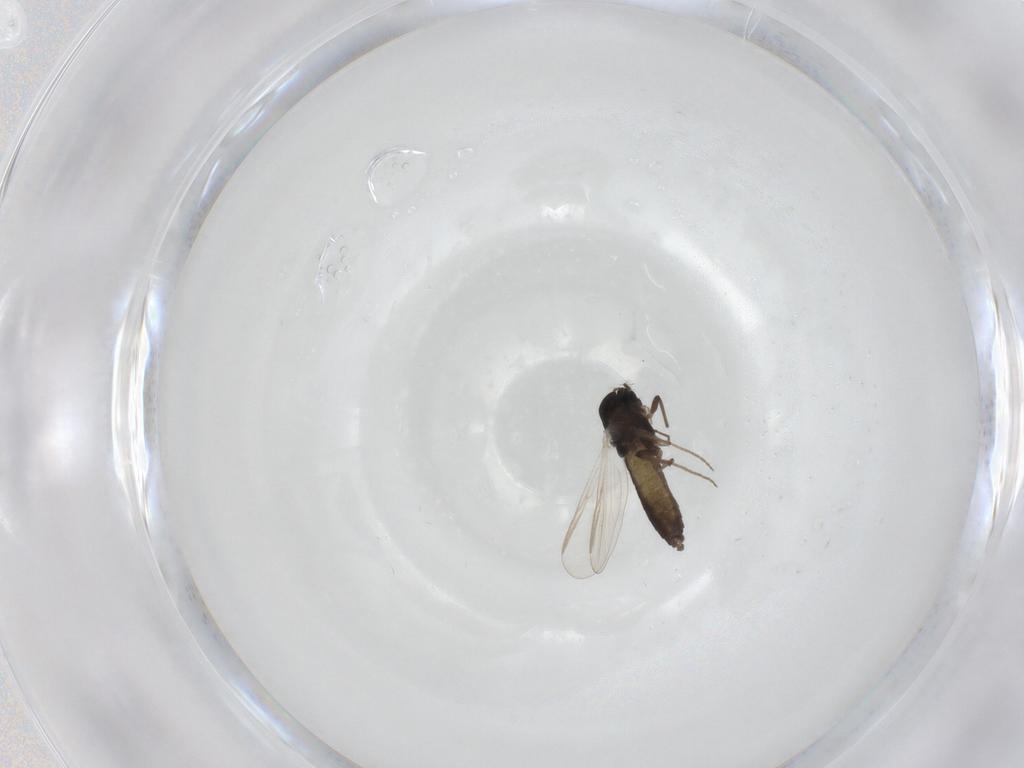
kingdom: Animalia
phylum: Arthropoda
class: Insecta
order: Diptera
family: Chironomidae
